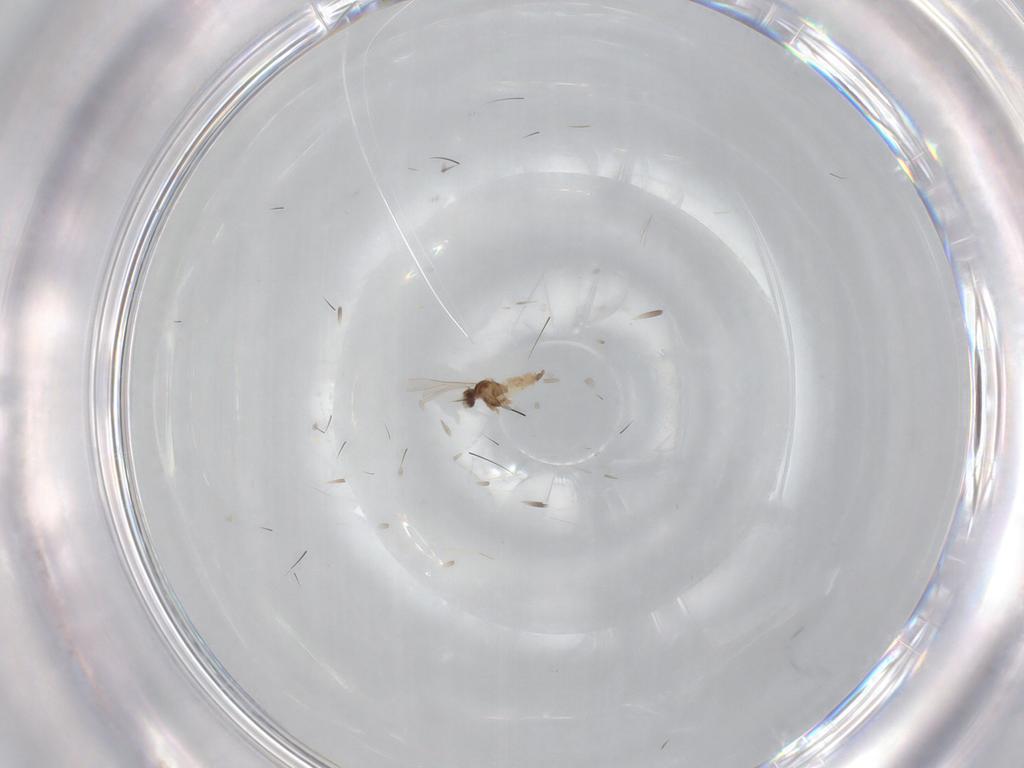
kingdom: Animalia
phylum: Arthropoda
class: Insecta
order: Diptera
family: Chironomidae
